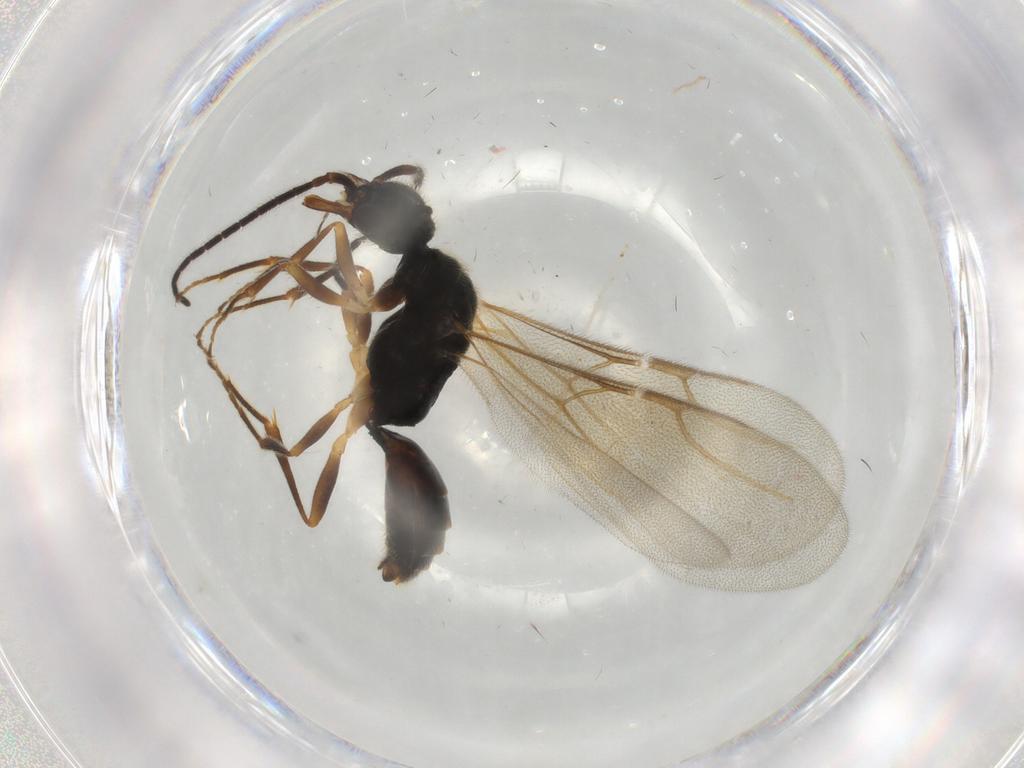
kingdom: Animalia
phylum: Arthropoda
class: Insecta
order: Hymenoptera
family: Bethylidae
